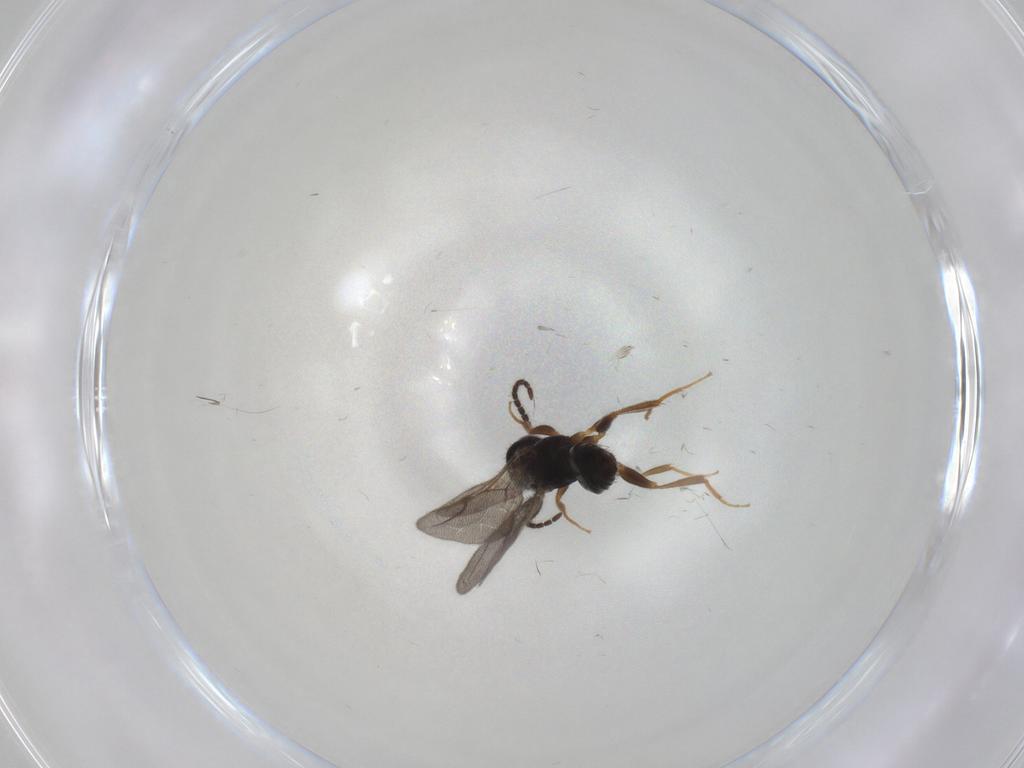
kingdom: Animalia
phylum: Arthropoda
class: Insecta
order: Hymenoptera
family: Bethylidae
